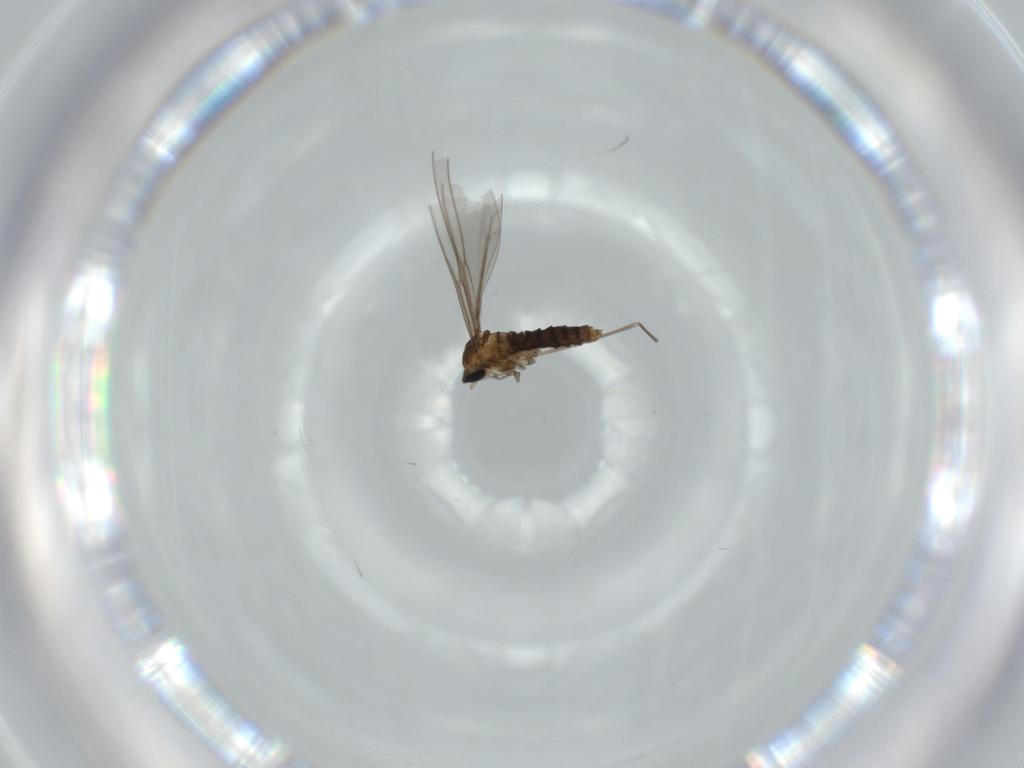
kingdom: Animalia
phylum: Arthropoda
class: Insecta
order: Diptera
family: Cecidomyiidae
